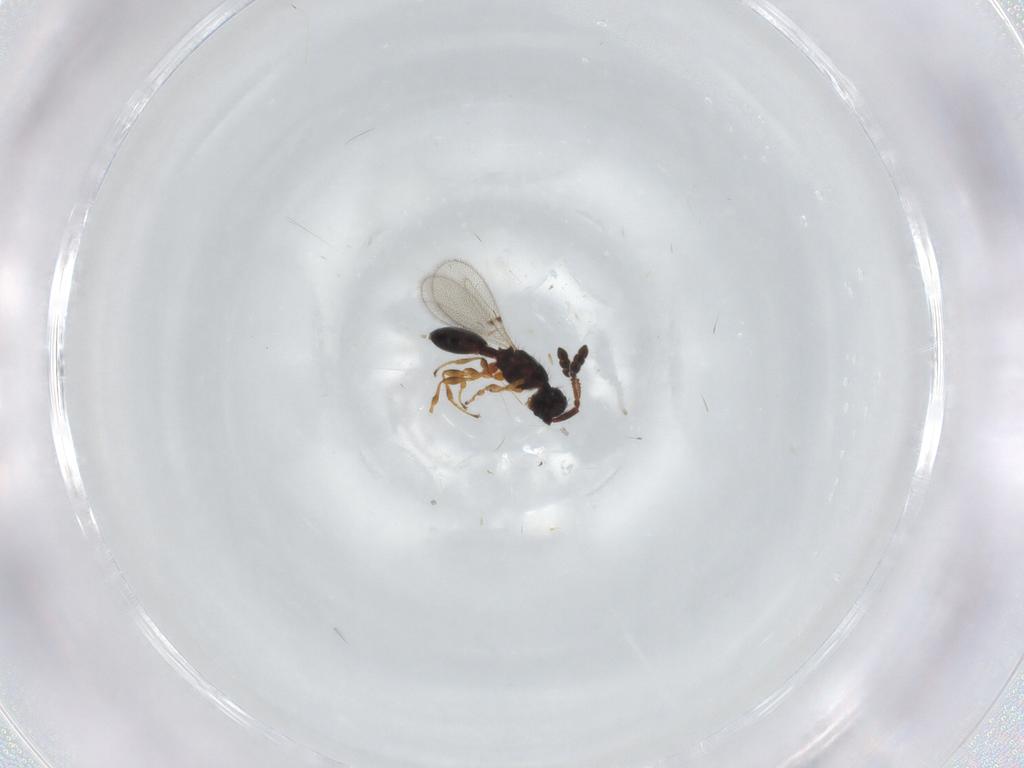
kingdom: Animalia
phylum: Arthropoda
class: Insecta
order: Hymenoptera
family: Diapriidae
